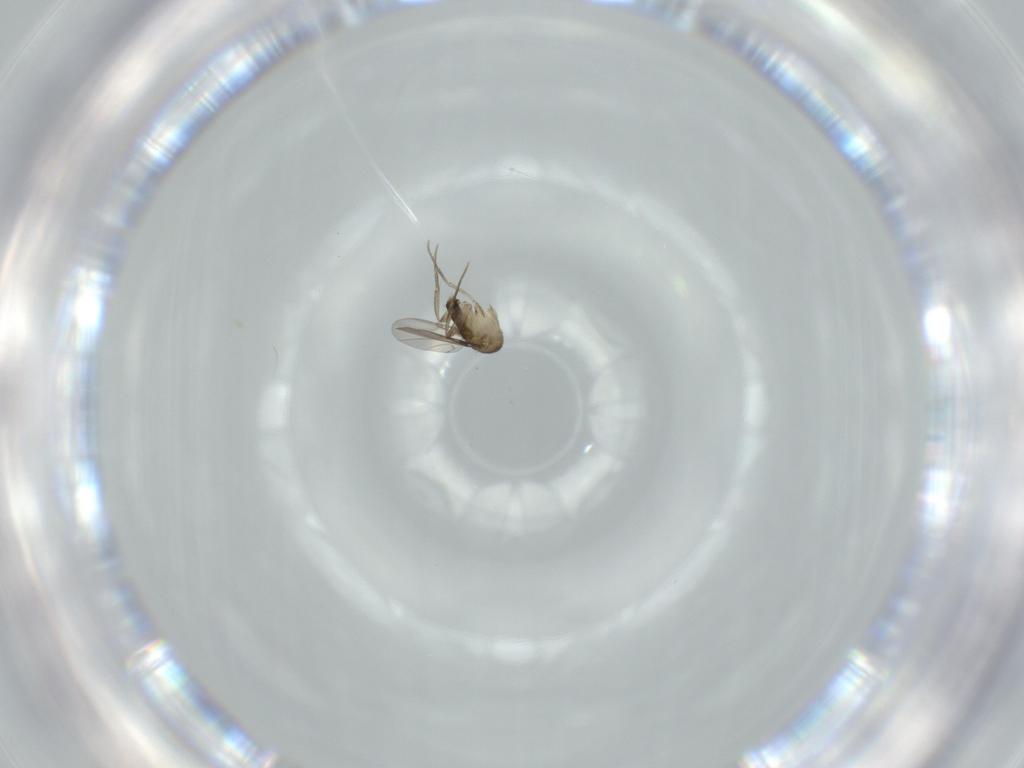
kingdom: Animalia
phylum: Arthropoda
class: Insecta
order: Diptera
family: Phoridae
